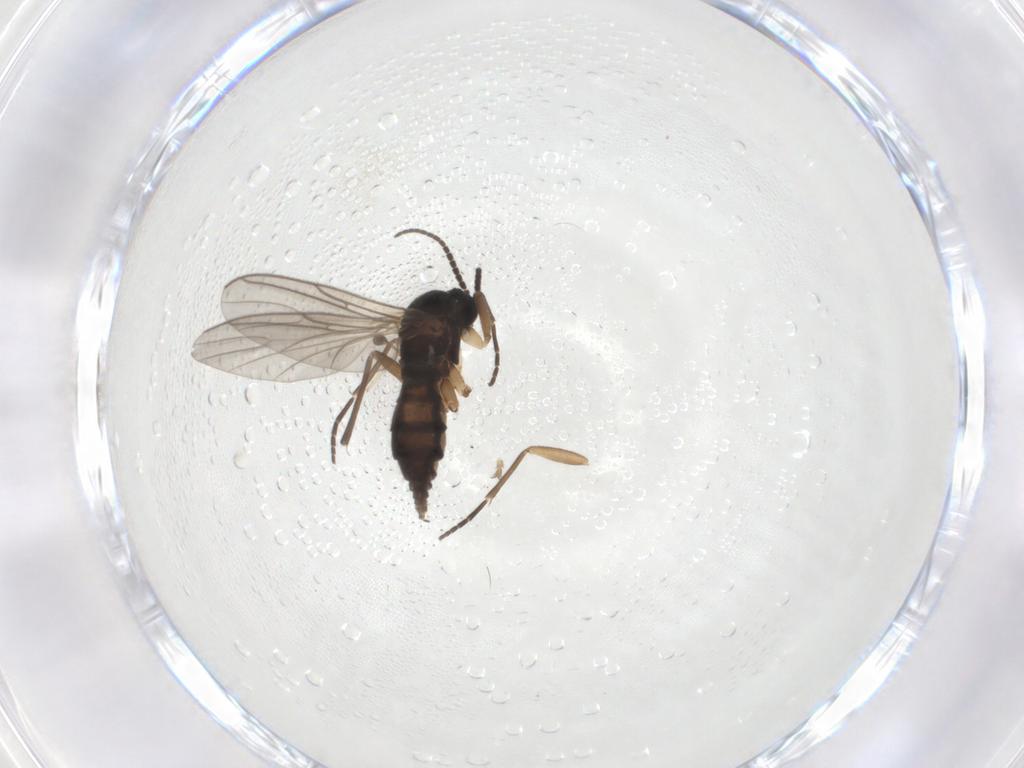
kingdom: Animalia
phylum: Arthropoda
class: Insecta
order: Diptera
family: Sciaridae
